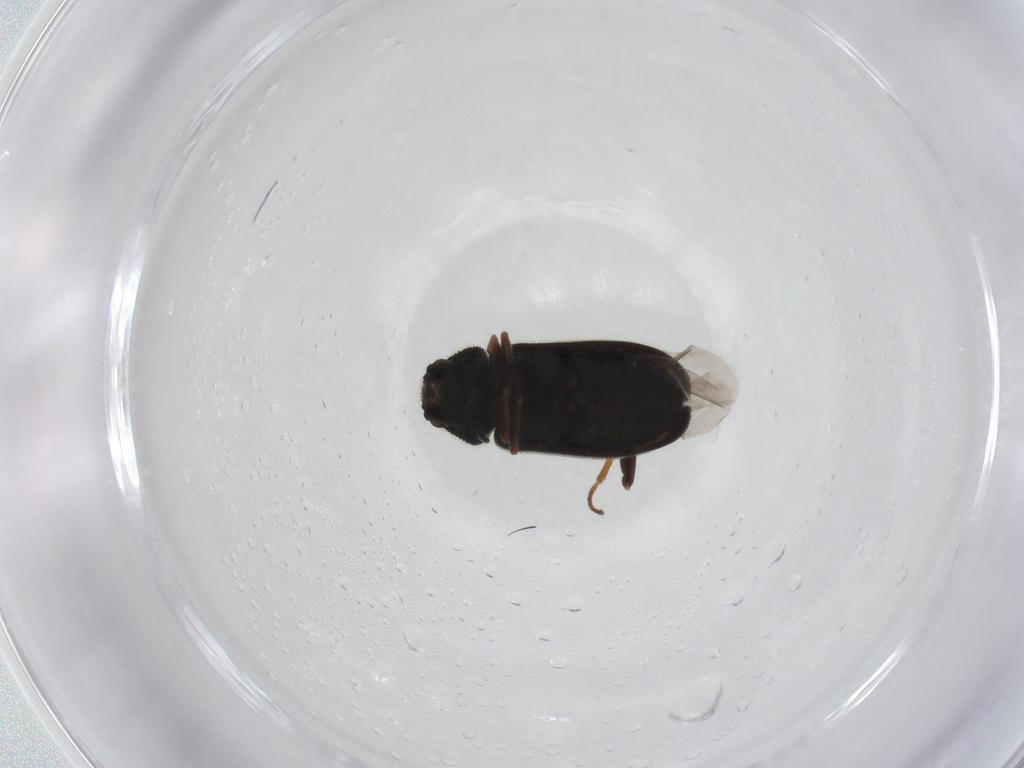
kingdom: Animalia
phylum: Arthropoda
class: Insecta
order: Coleoptera
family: Melyridae
